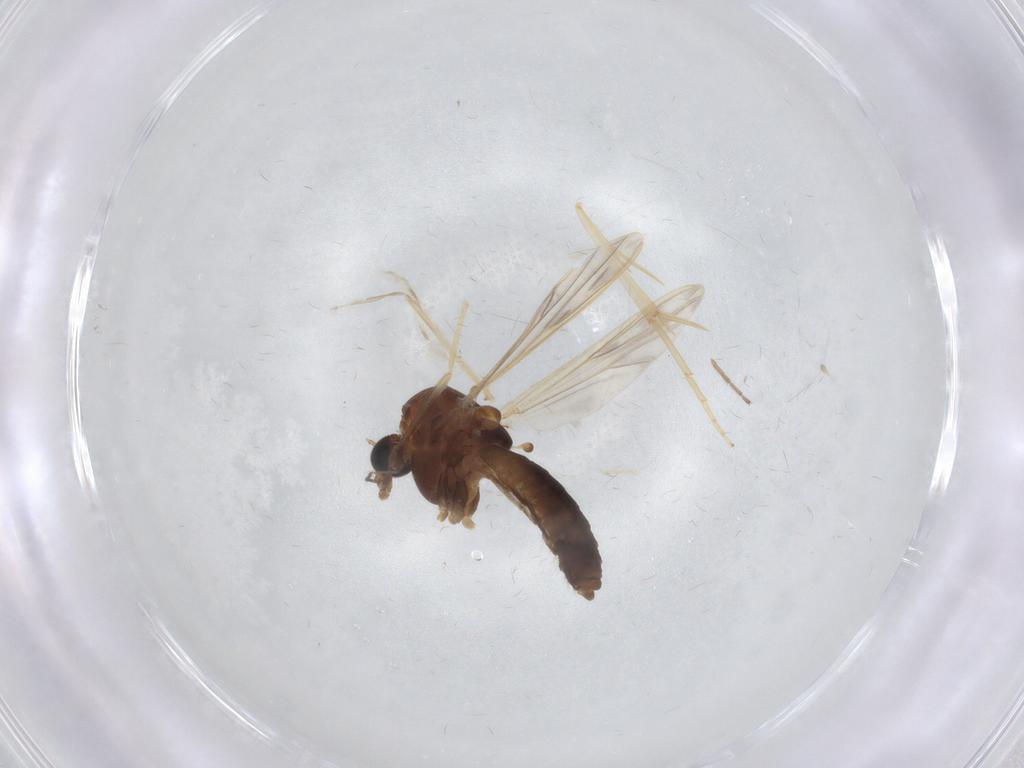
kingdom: Animalia
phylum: Arthropoda
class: Insecta
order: Diptera
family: Chironomidae
